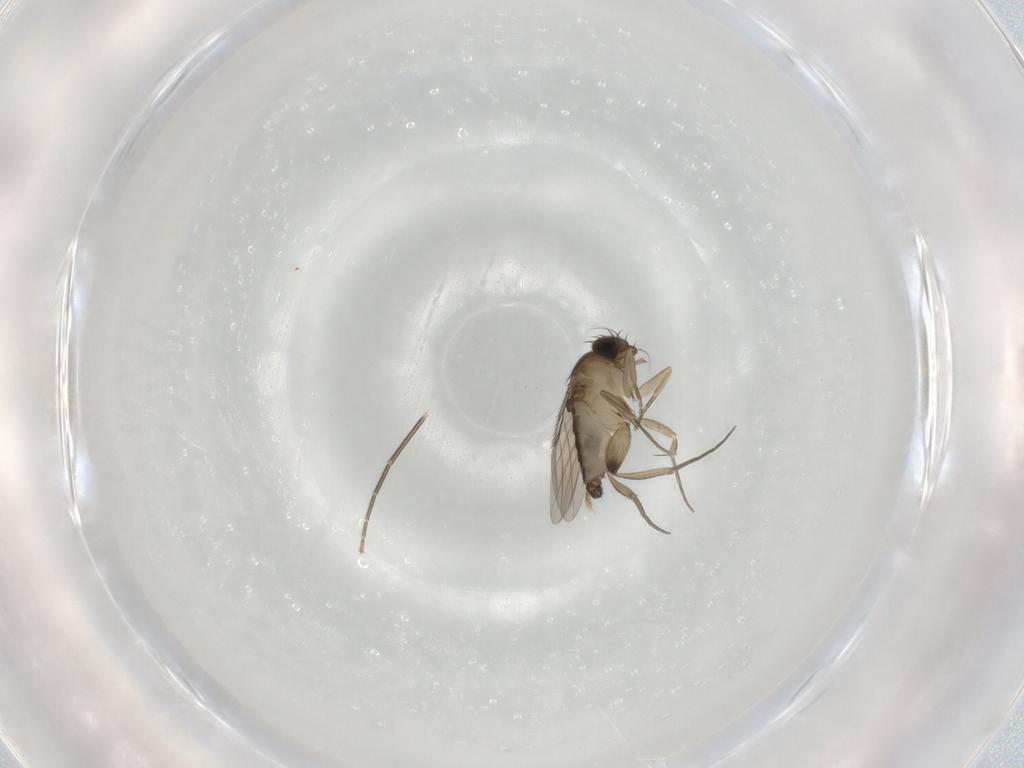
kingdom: Animalia
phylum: Arthropoda
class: Insecta
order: Diptera
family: Phoridae
